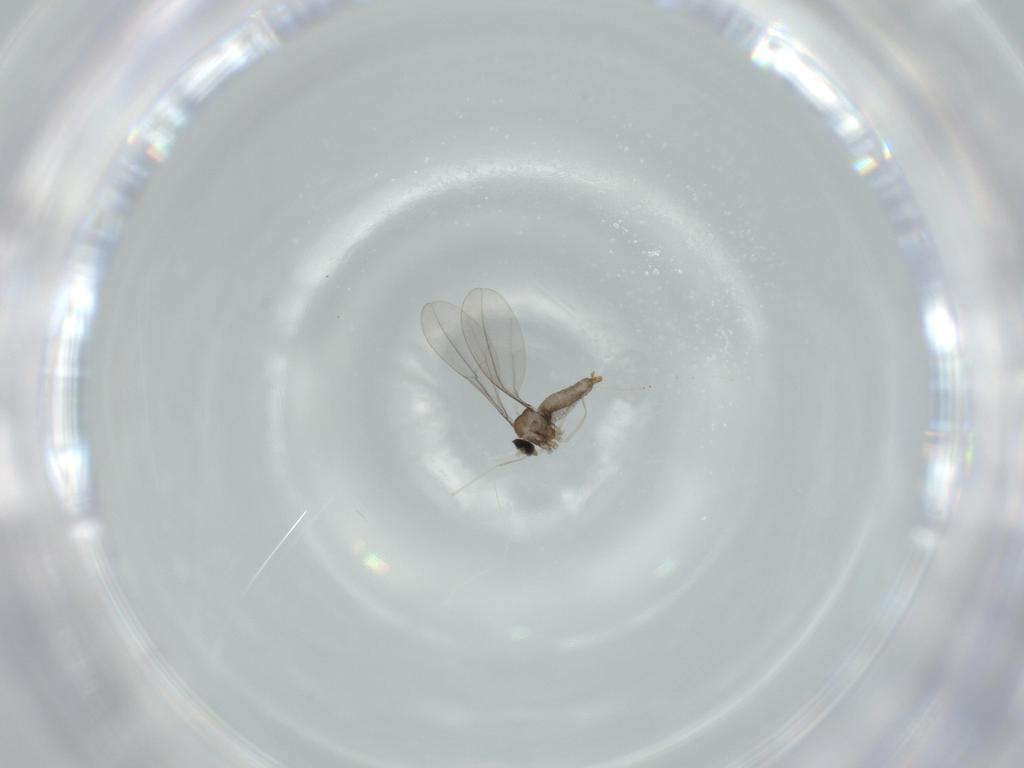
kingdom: Animalia
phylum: Arthropoda
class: Insecta
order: Diptera
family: Cecidomyiidae
